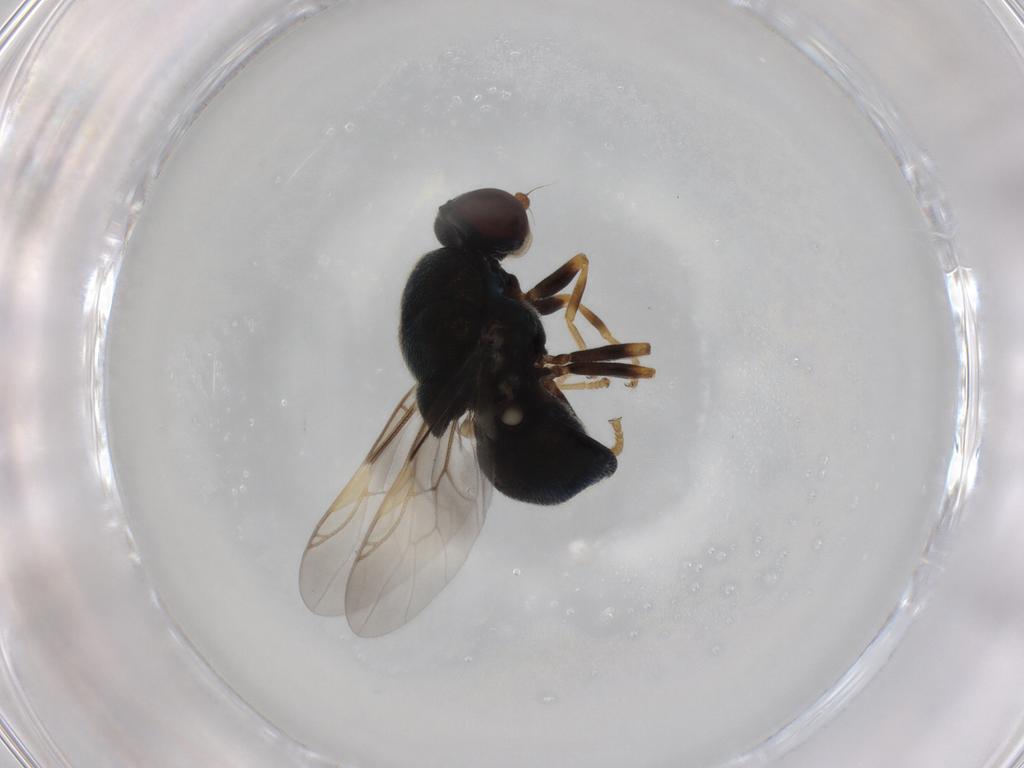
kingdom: Animalia
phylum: Arthropoda
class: Insecta
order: Diptera
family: Stratiomyidae
